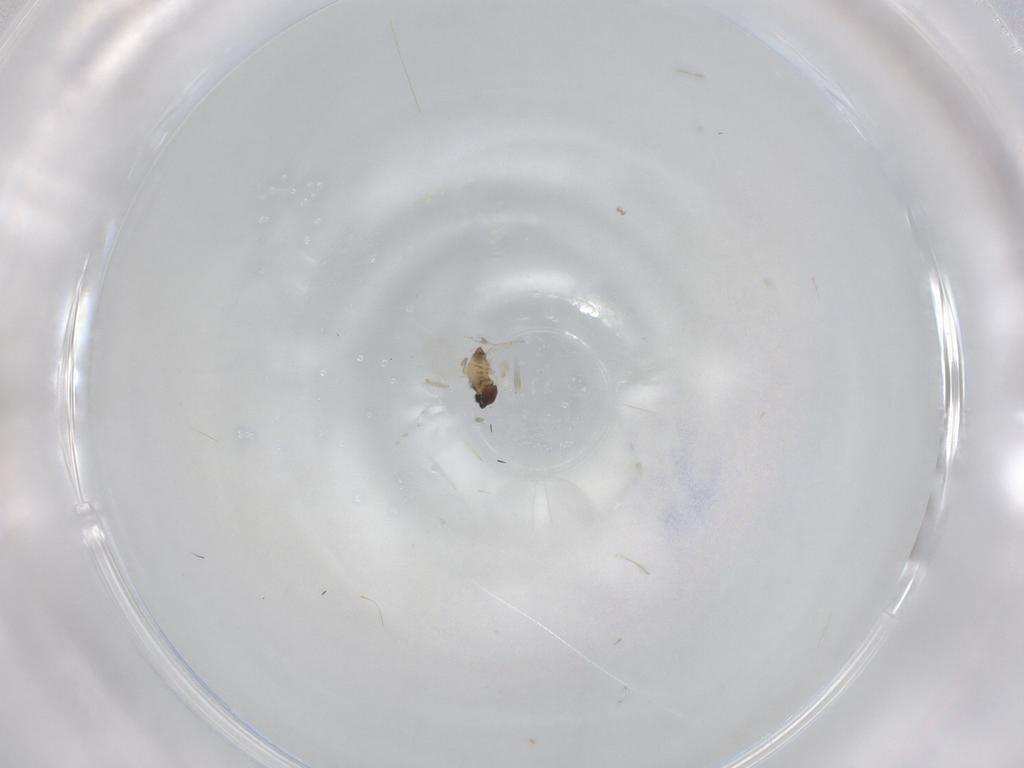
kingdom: Animalia
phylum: Arthropoda
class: Insecta
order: Diptera
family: Cecidomyiidae
